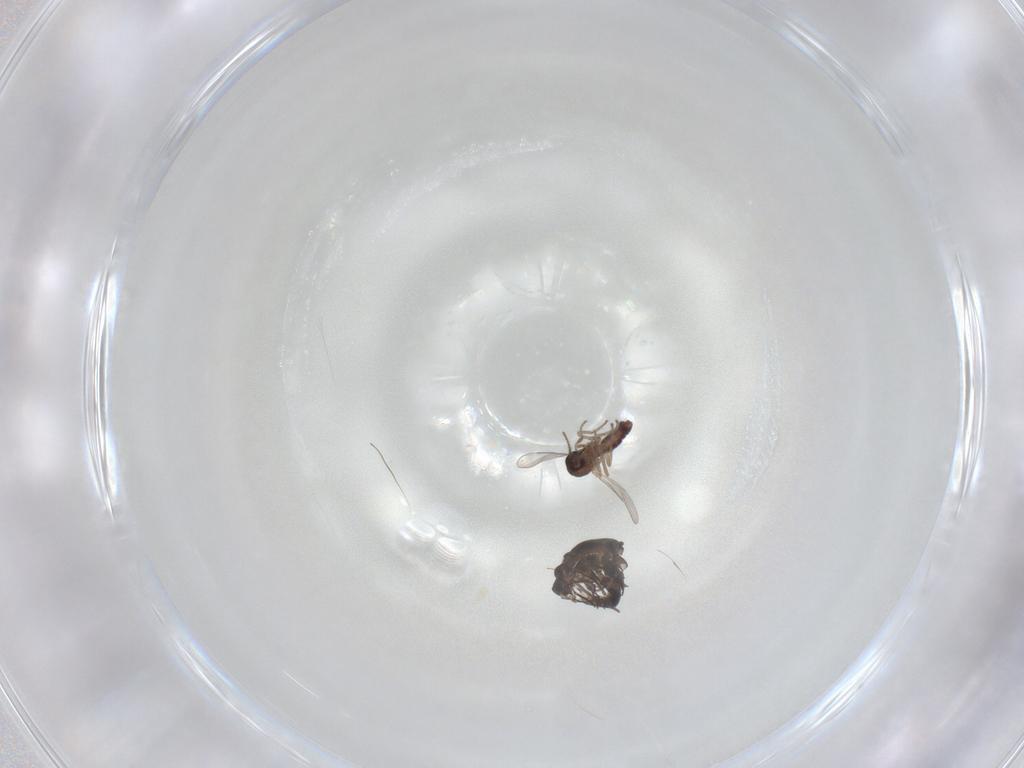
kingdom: Animalia
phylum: Arthropoda
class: Insecta
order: Diptera
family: Ceratopogonidae
